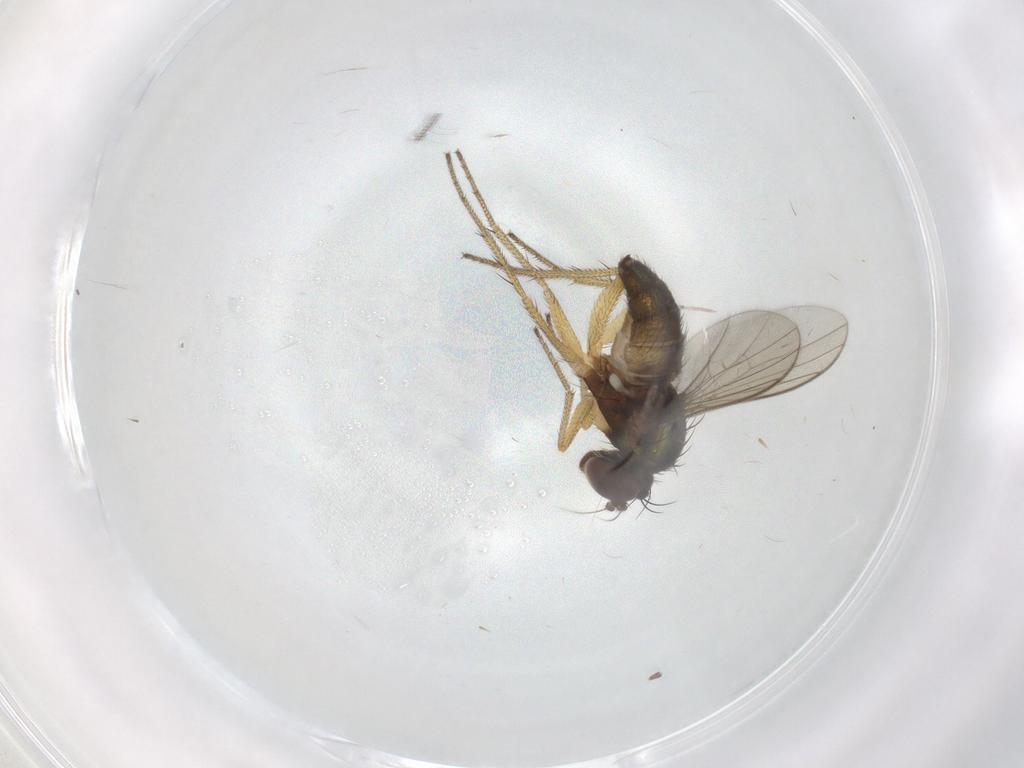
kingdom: Animalia
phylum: Arthropoda
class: Insecta
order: Diptera
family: Dolichopodidae
